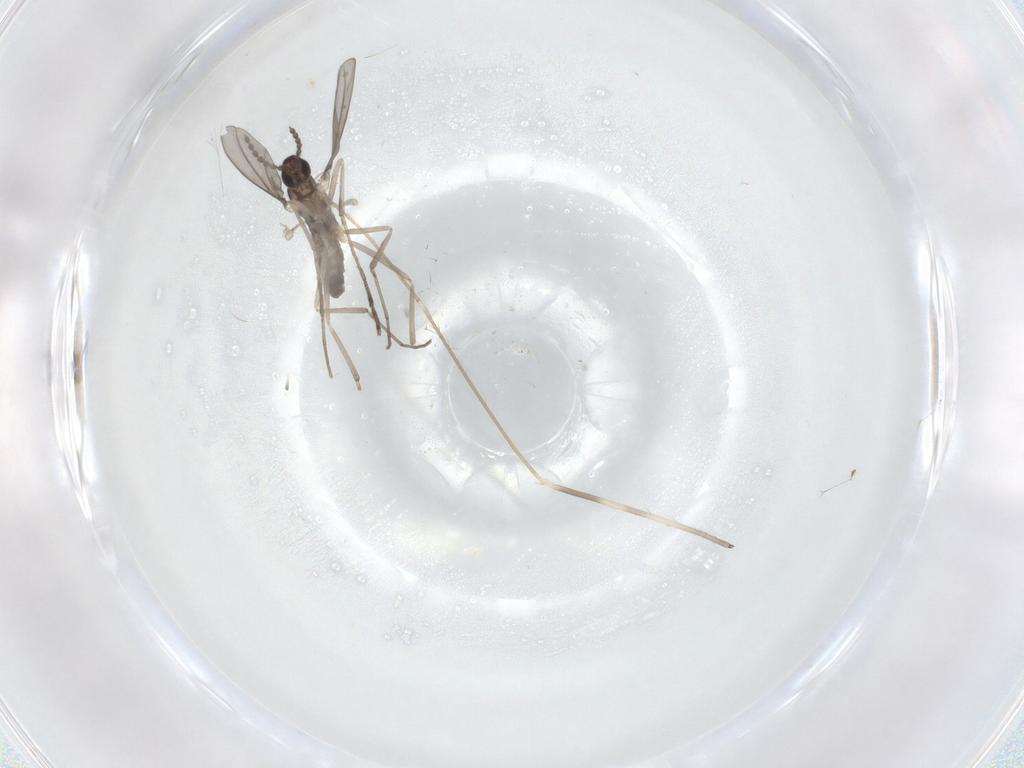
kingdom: Animalia
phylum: Arthropoda
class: Insecta
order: Diptera
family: Cecidomyiidae
